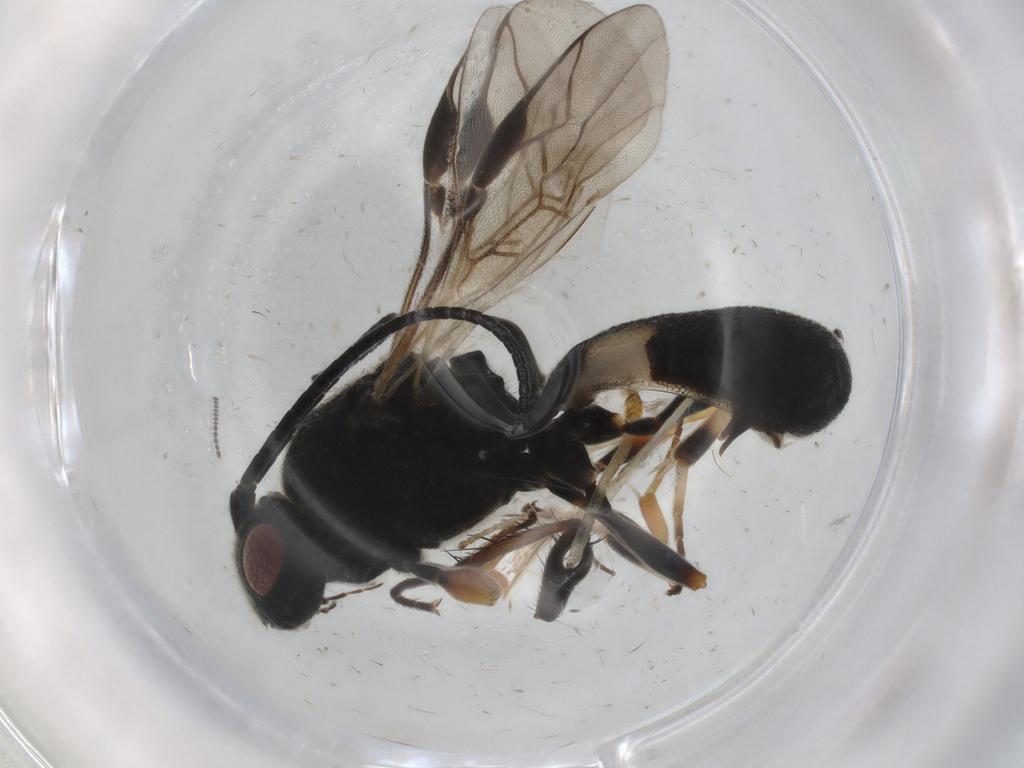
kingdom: Animalia
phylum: Arthropoda
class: Insecta
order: Hymenoptera
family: Braconidae
